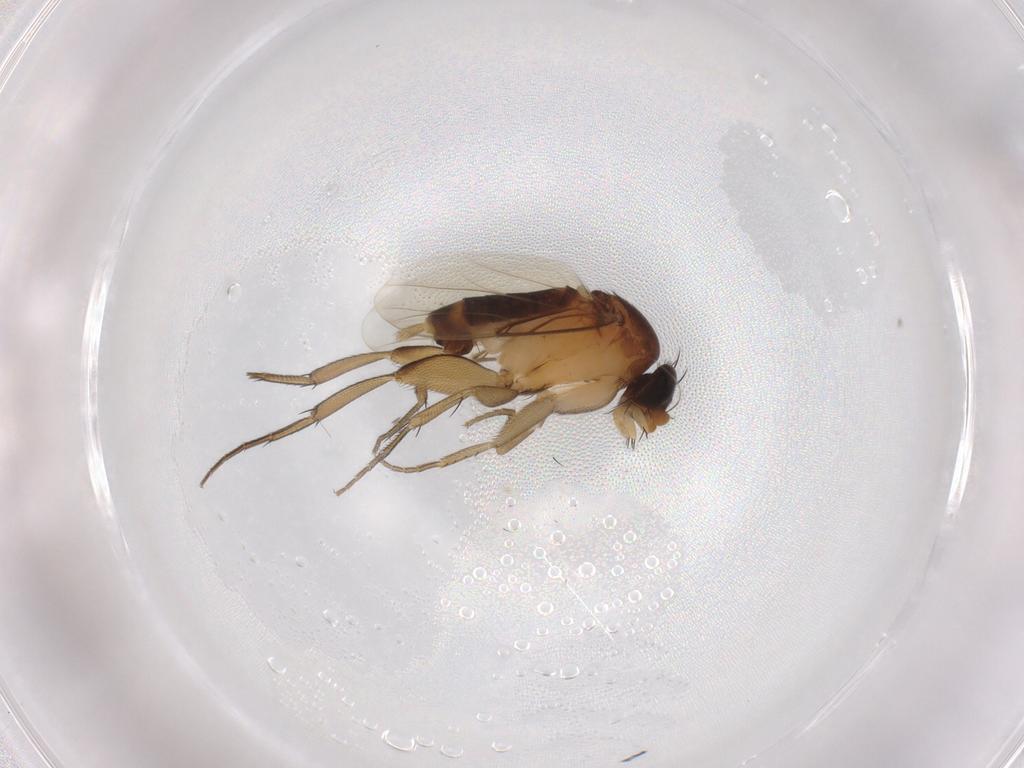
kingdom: Animalia
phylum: Arthropoda
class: Insecta
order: Diptera
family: Phoridae
